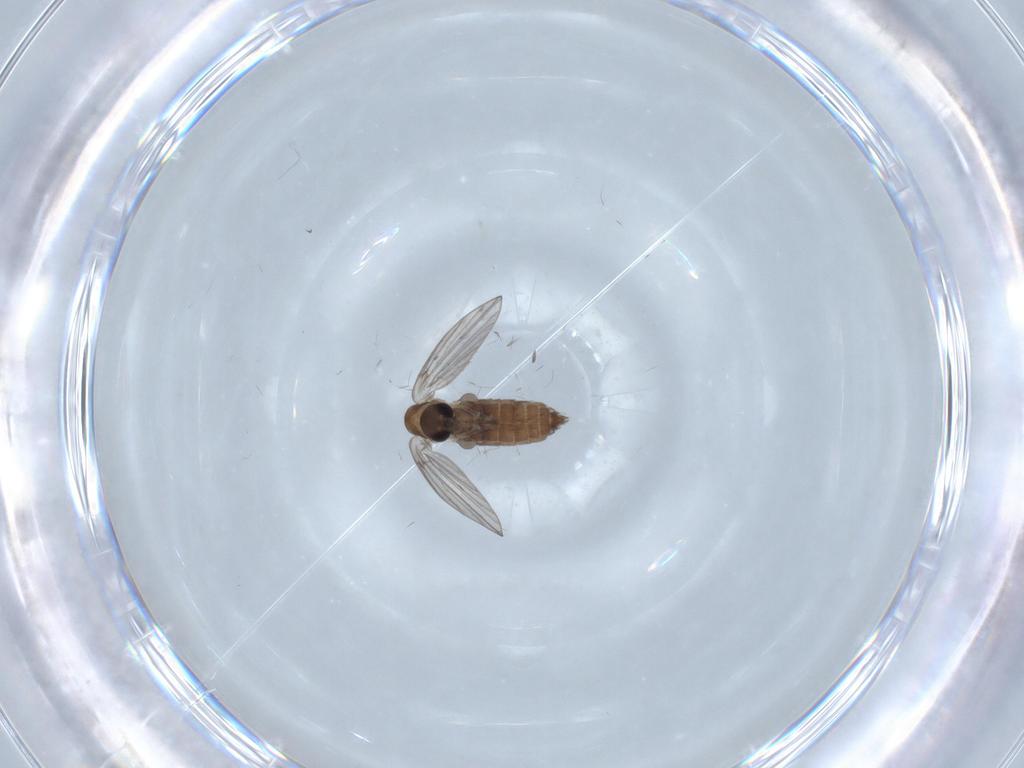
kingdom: Animalia
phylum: Arthropoda
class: Insecta
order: Diptera
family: Psychodidae
